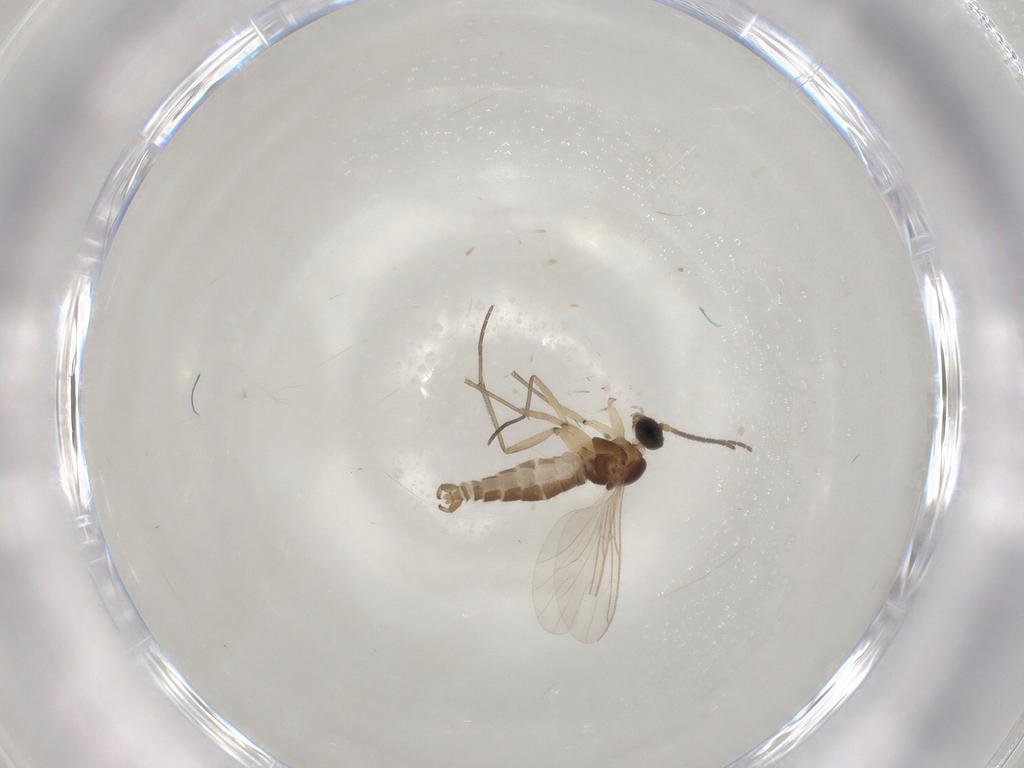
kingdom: Animalia
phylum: Arthropoda
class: Insecta
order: Diptera
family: Sciaridae
